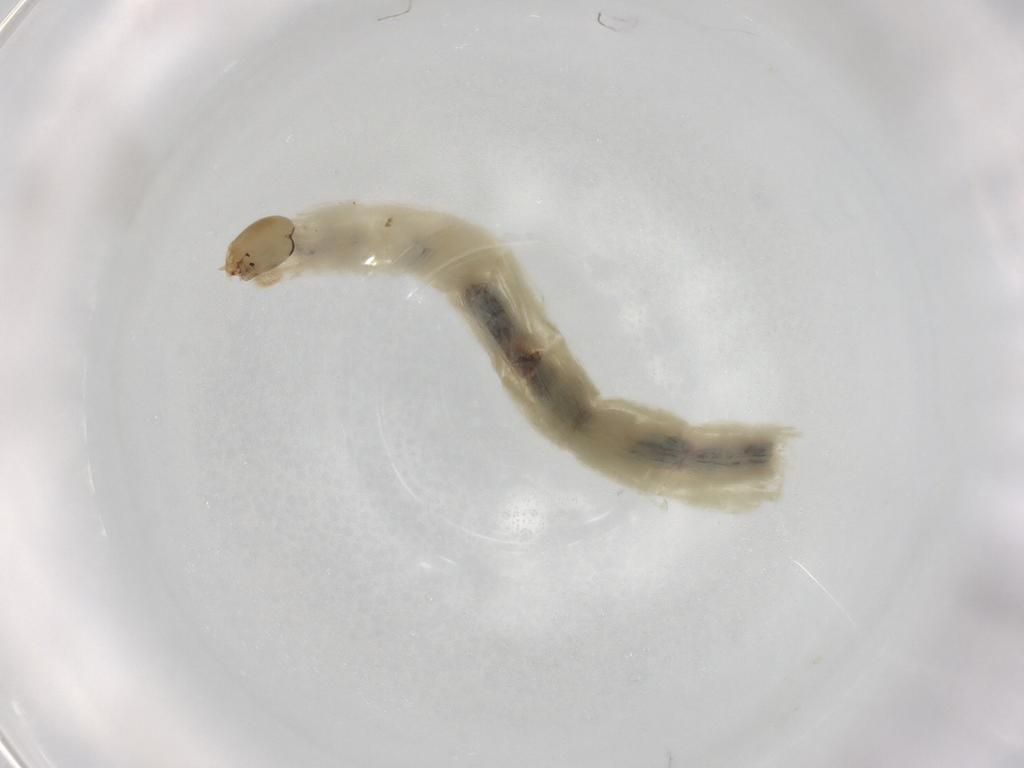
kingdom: Animalia
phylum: Arthropoda
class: Insecta
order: Diptera
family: Chironomidae
